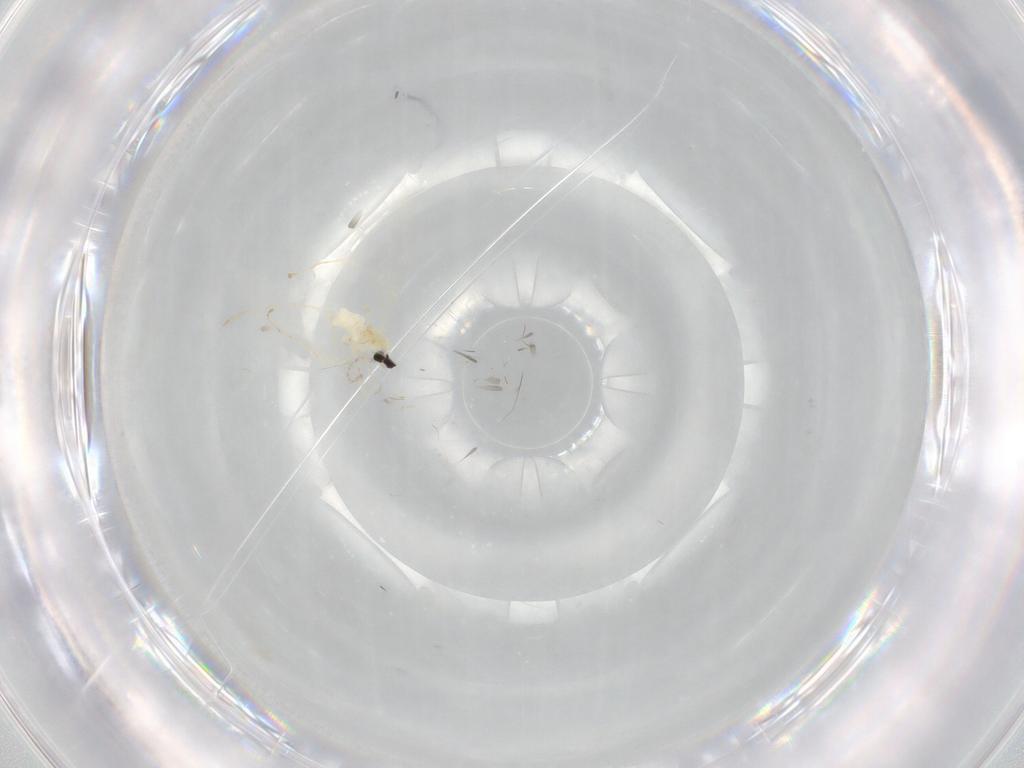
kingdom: Animalia
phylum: Arthropoda
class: Insecta
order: Diptera
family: Cecidomyiidae
